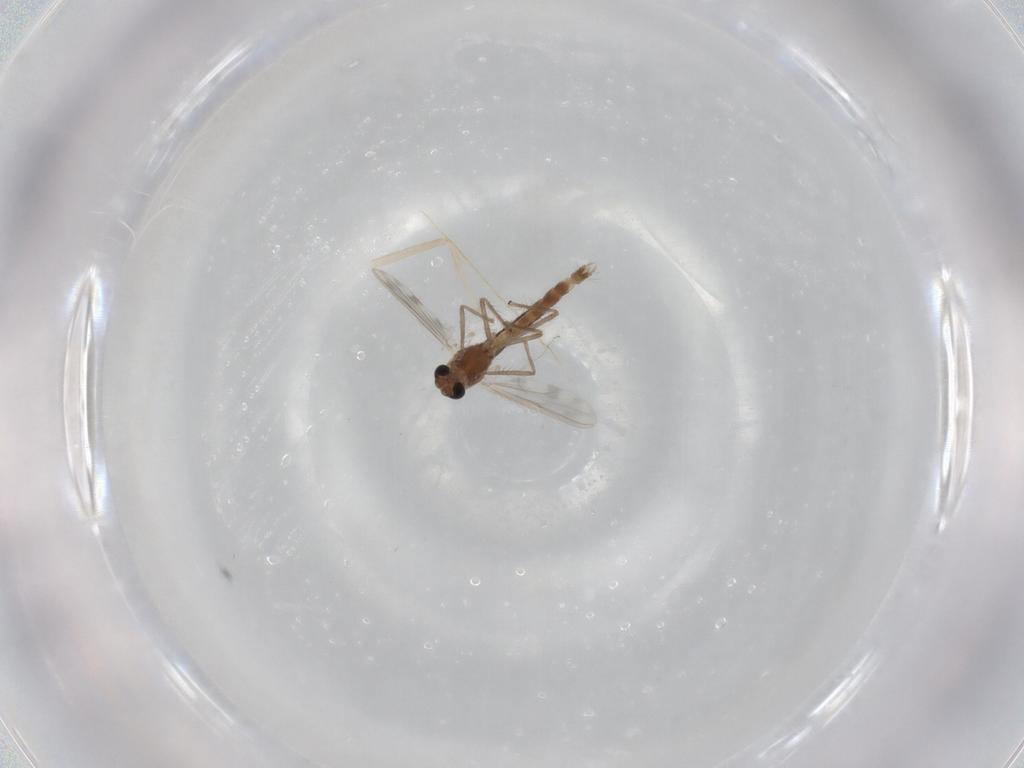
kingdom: Animalia
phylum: Arthropoda
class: Insecta
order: Diptera
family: Chironomidae
